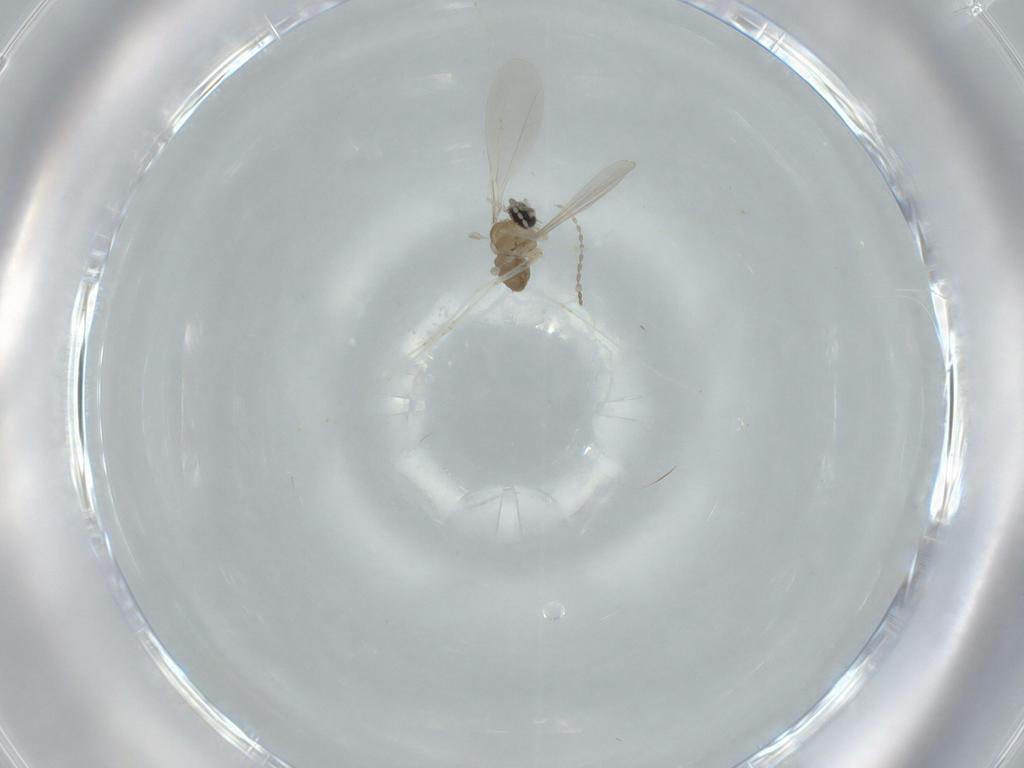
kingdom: Animalia
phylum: Arthropoda
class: Insecta
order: Diptera
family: Cecidomyiidae
